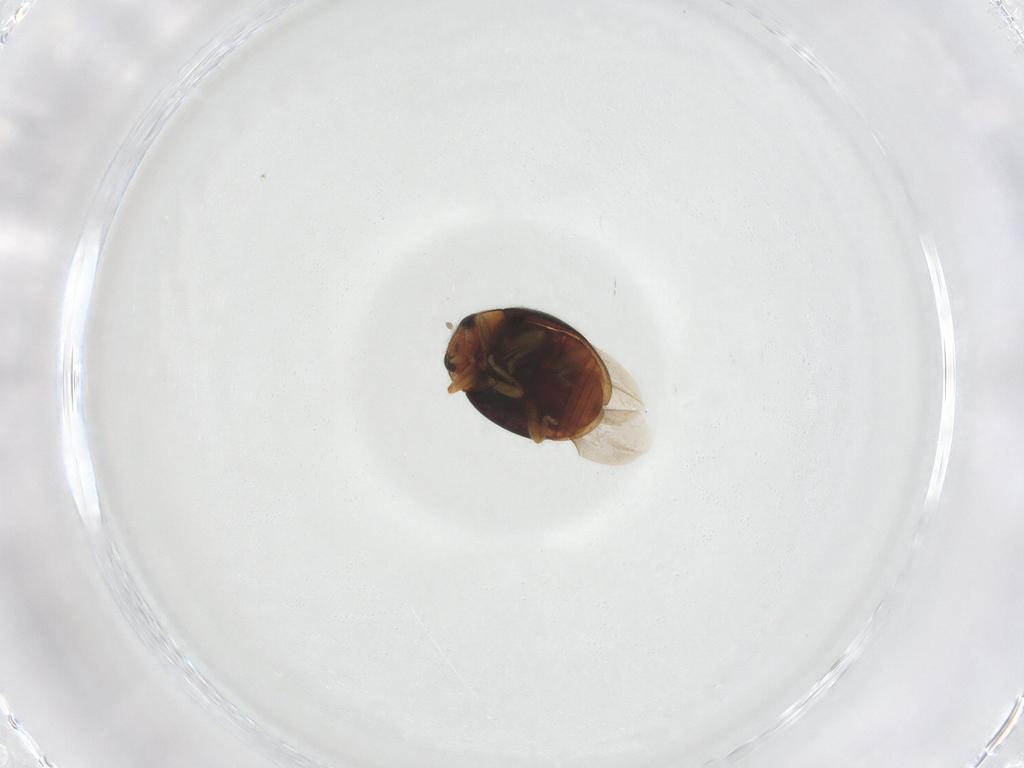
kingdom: Animalia
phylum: Arthropoda
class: Insecta
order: Coleoptera
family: Coccinellidae
